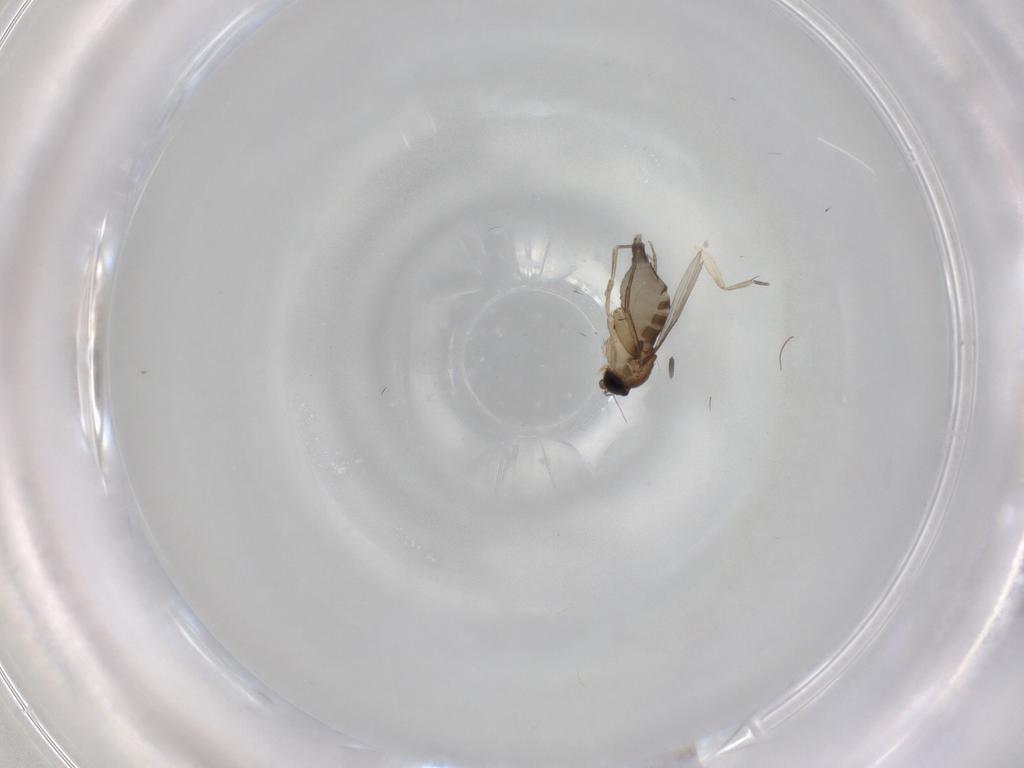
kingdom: Animalia
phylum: Arthropoda
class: Insecta
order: Diptera
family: Phoridae
